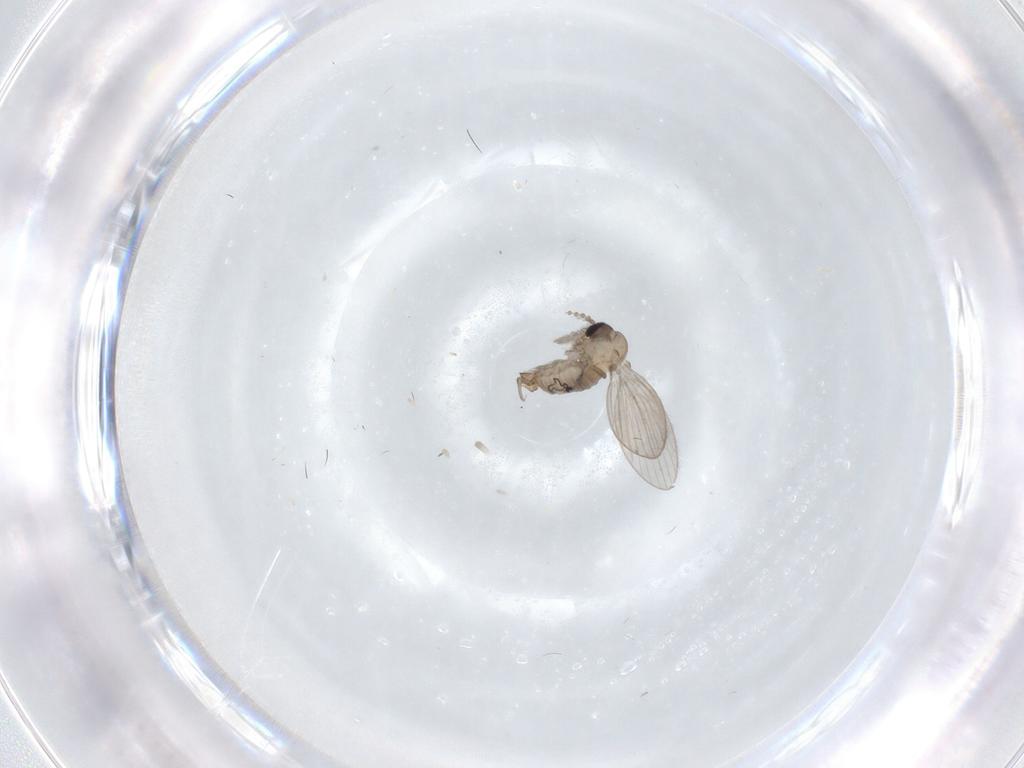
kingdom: Animalia
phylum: Arthropoda
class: Insecta
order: Diptera
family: Psychodidae
